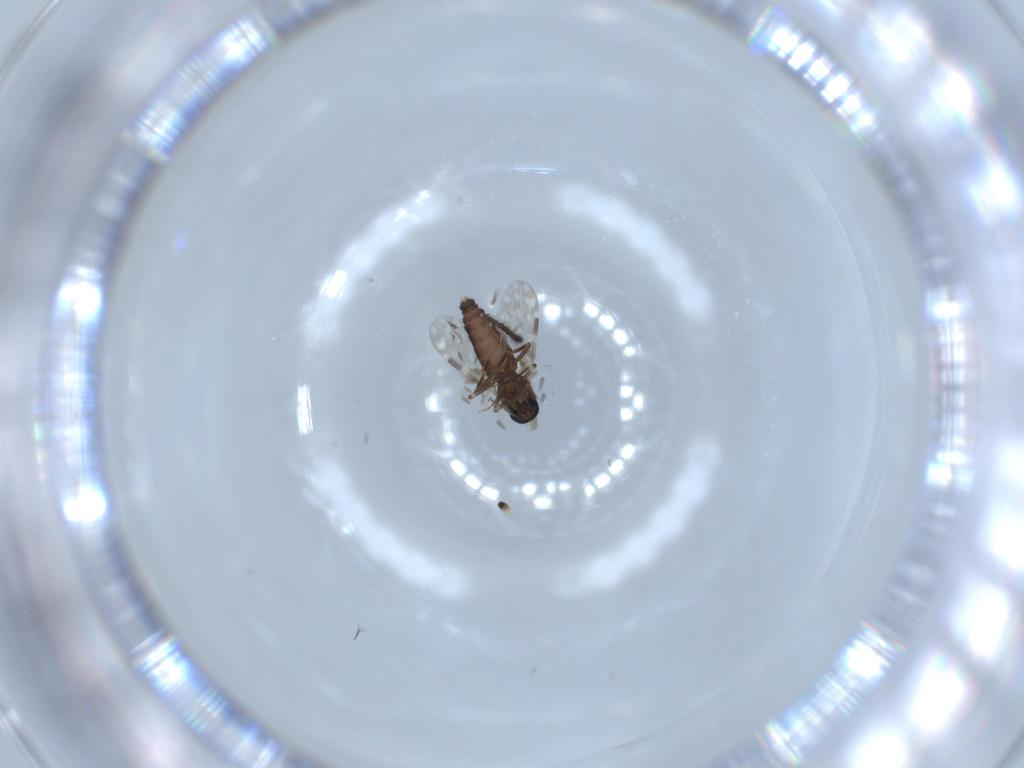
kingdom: Animalia
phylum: Arthropoda
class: Insecta
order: Diptera
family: Ceratopogonidae
